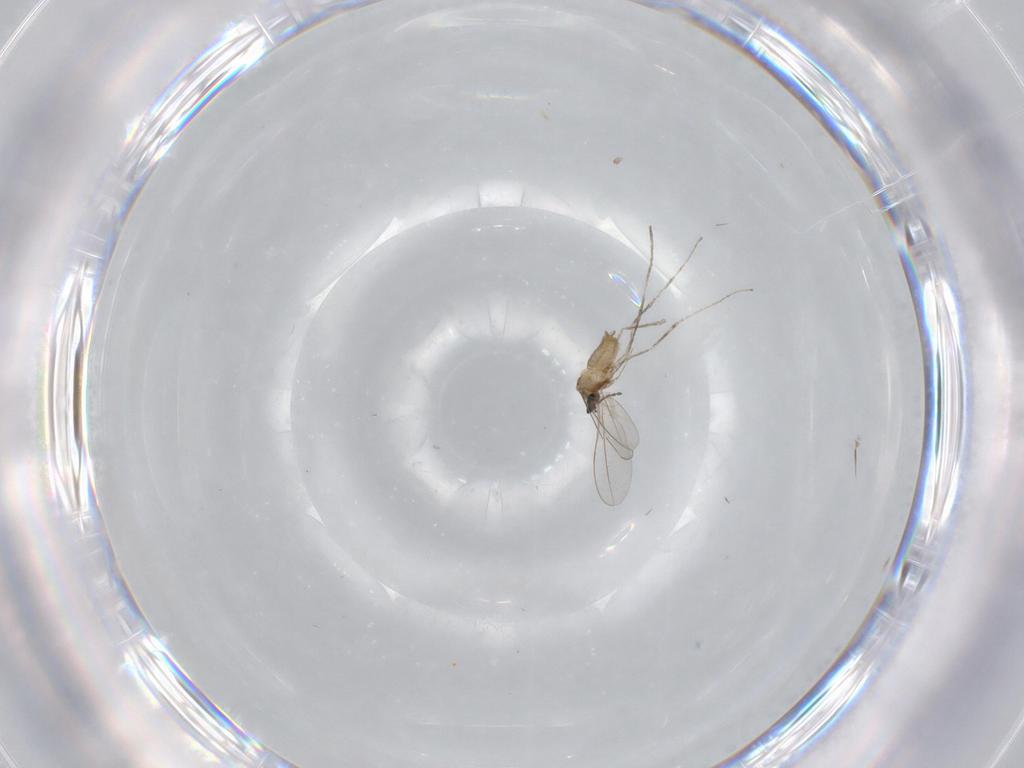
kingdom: Animalia
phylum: Arthropoda
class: Insecta
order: Diptera
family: Cecidomyiidae
